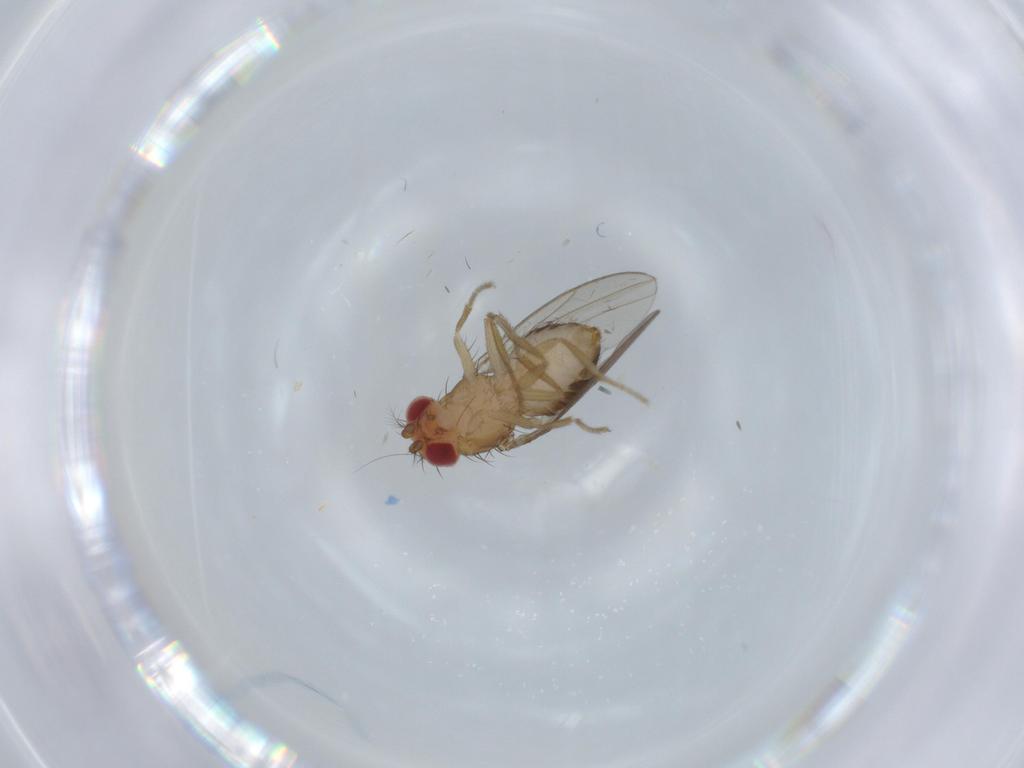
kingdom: Animalia
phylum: Arthropoda
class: Insecta
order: Diptera
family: Drosophilidae
